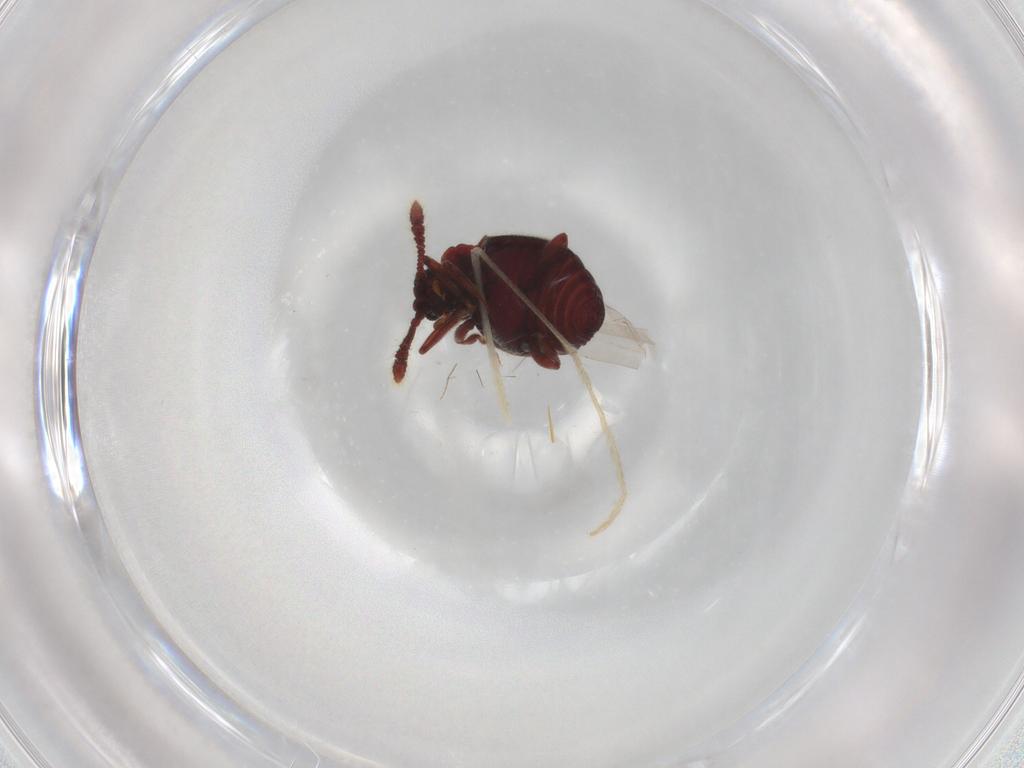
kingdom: Animalia
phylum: Arthropoda
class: Insecta
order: Coleoptera
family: Staphylinidae
